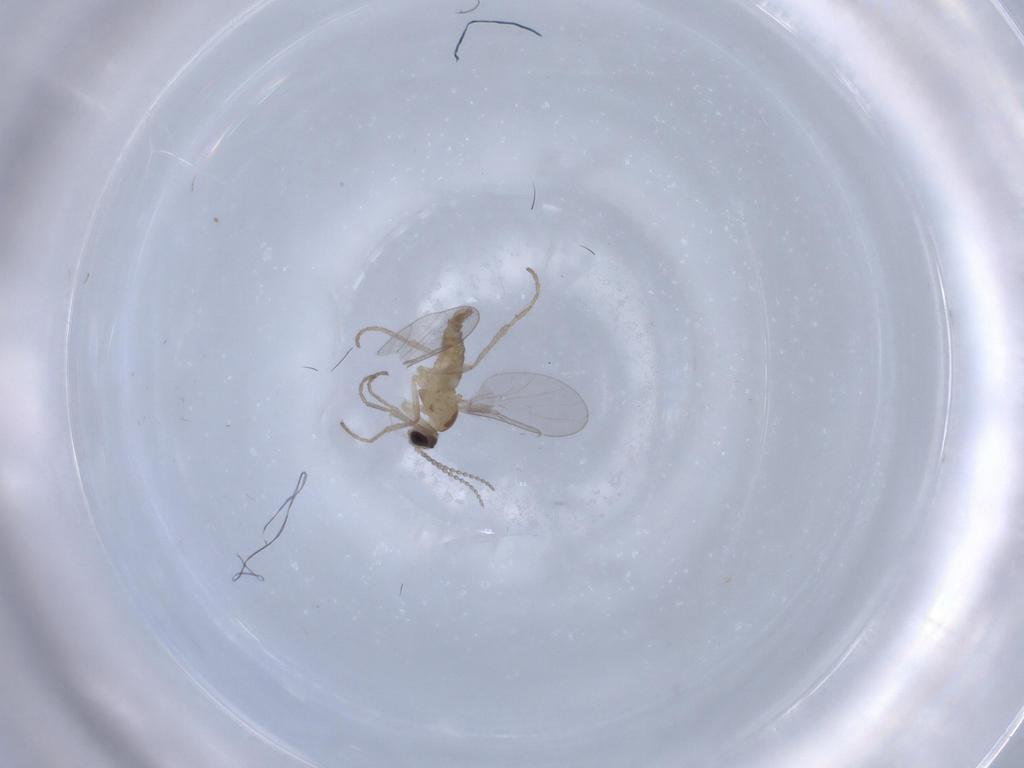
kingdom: Animalia
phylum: Arthropoda
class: Insecta
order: Diptera
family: Cecidomyiidae
